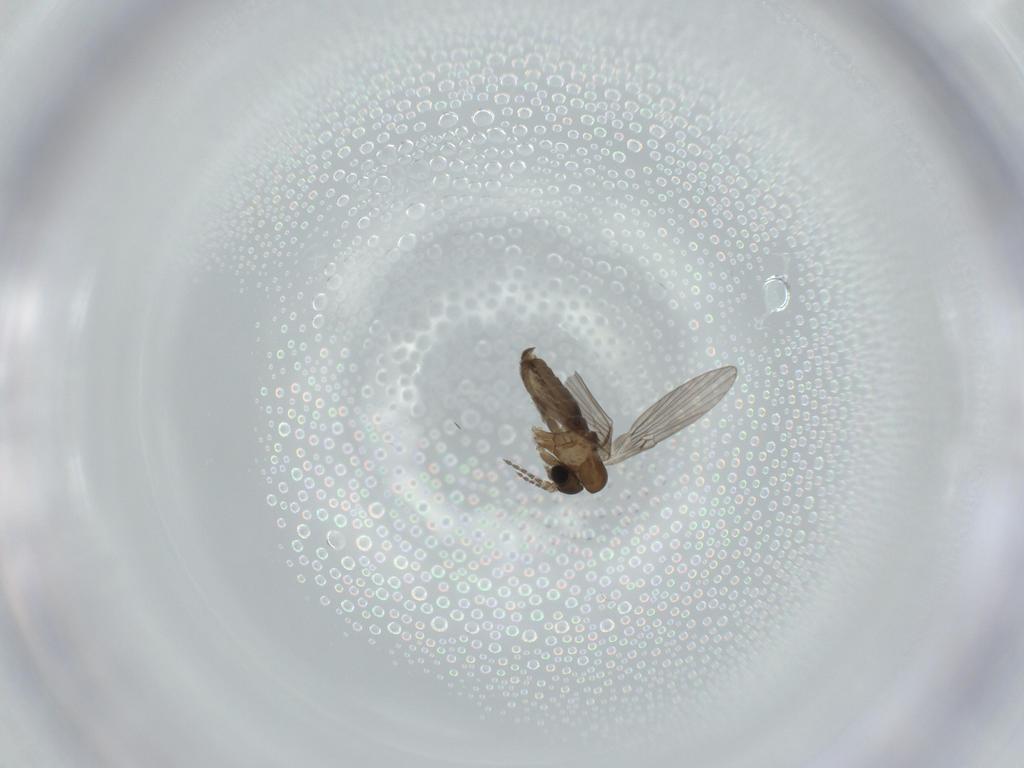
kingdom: Animalia
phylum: Arthropoda
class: Insecta
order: Diptera
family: Psychodidae
